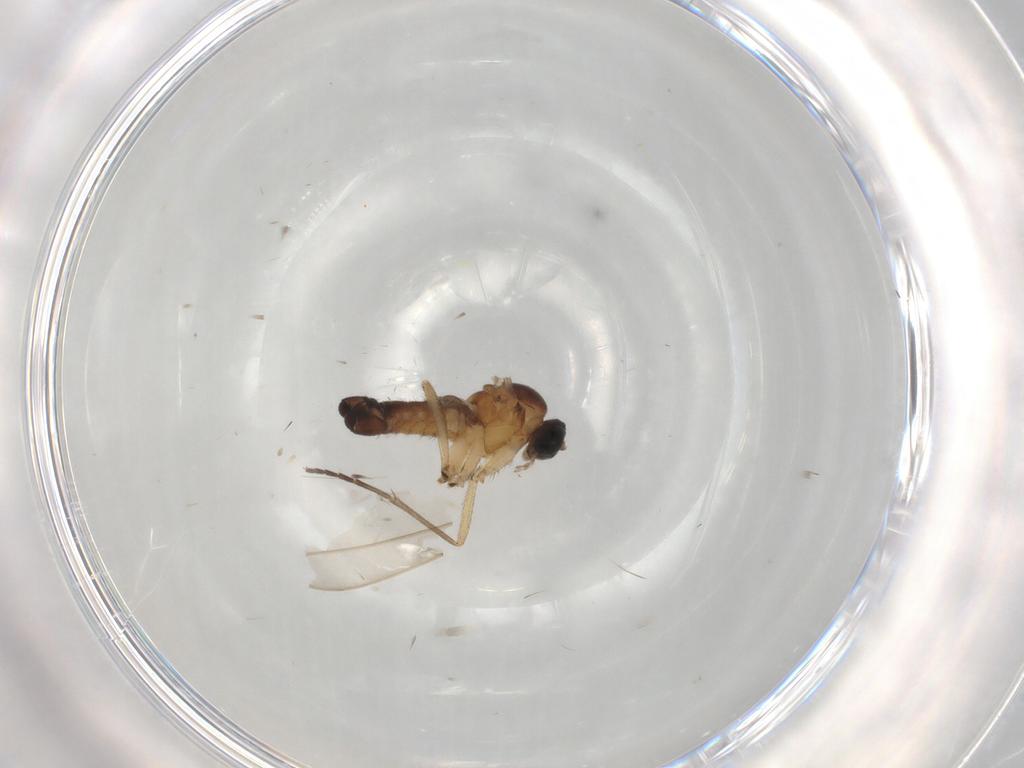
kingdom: Animalia
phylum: Arthropoda
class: Insecta
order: Diptera
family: Sciaridae
